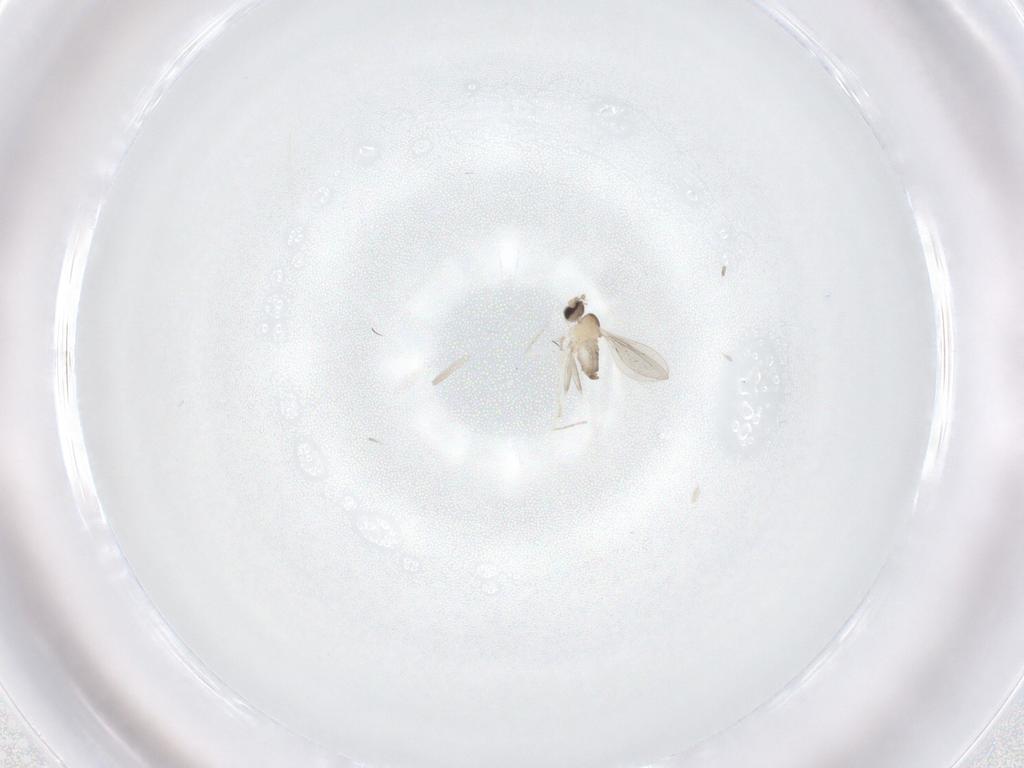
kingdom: Animalia
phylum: Arthropoda
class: Insecta
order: Diptera
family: Cecidomyiidae
